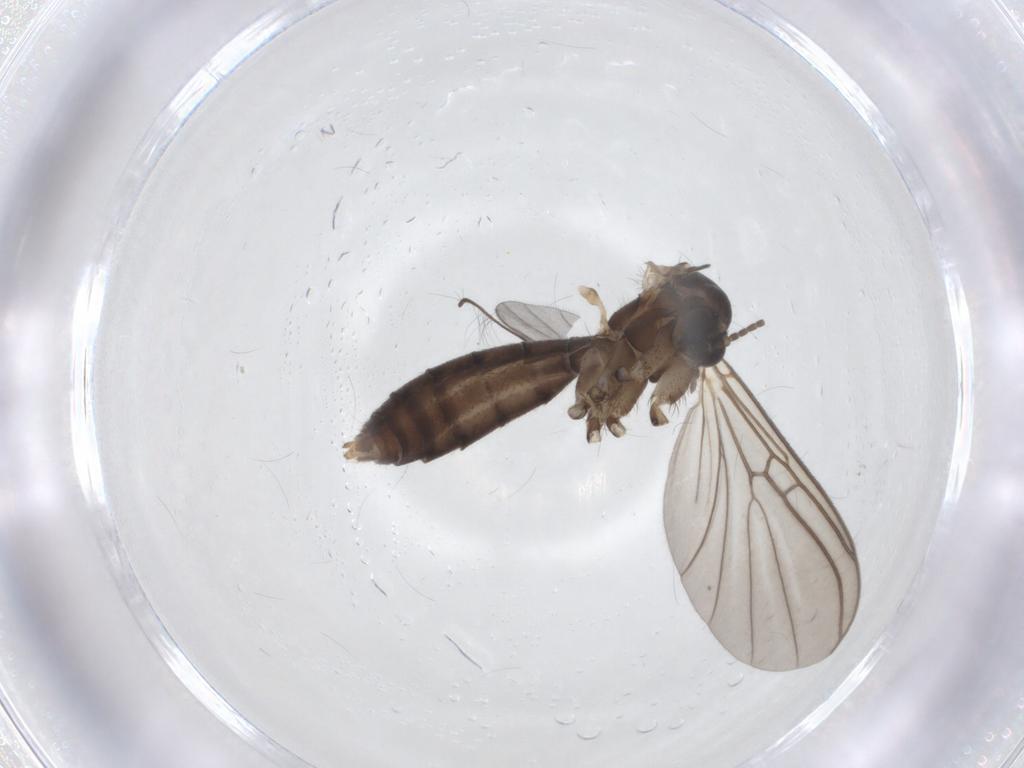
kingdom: Animalia
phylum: Arthropoda
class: Insecta
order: Diptera
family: Mycetophilidae
